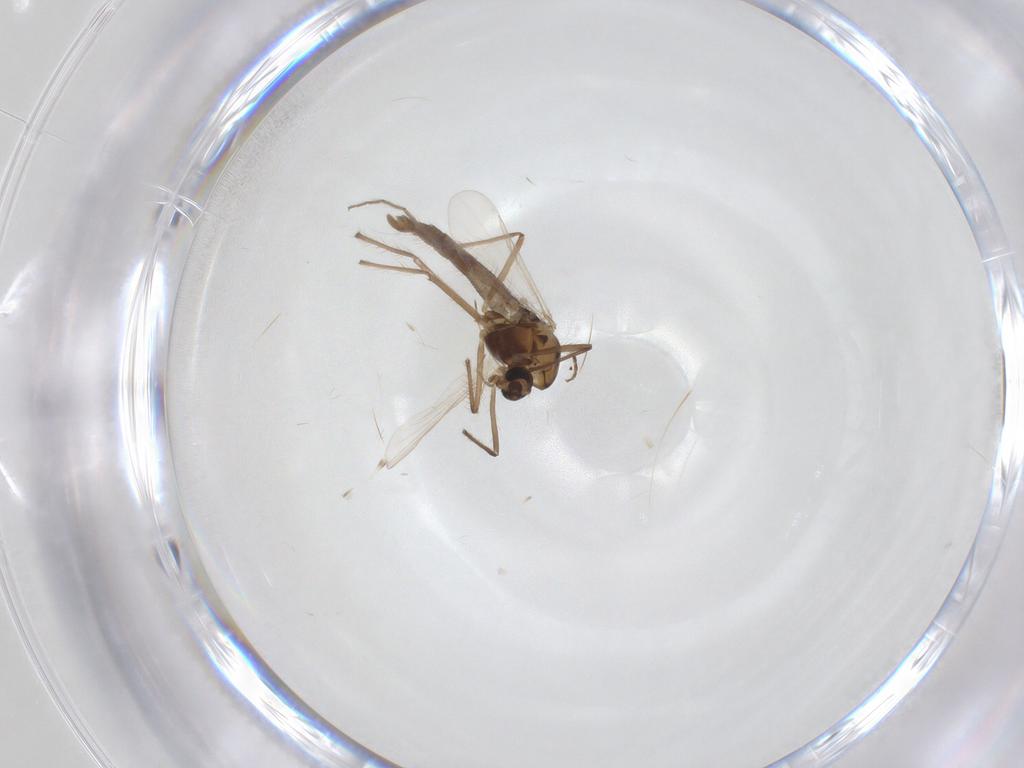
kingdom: Animalia
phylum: Arthropoda
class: Insecta
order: Diptera
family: Chironomidae
